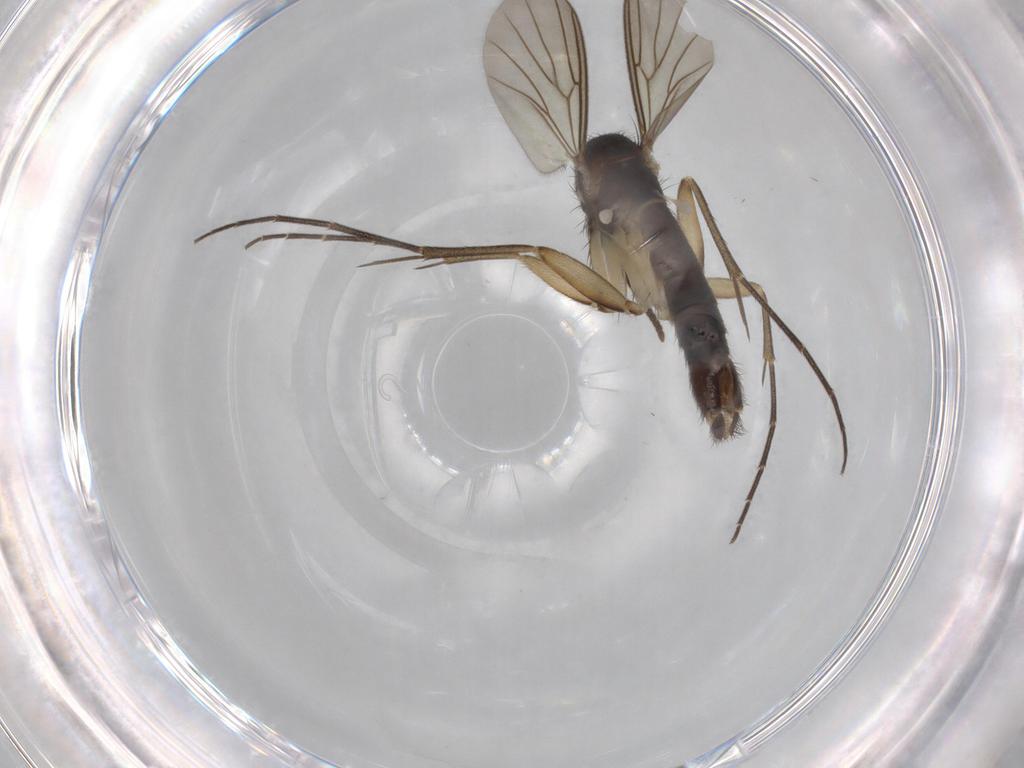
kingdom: Animalia
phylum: Arthropoda
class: Insecta
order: Diptera
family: Mycetophilidae
